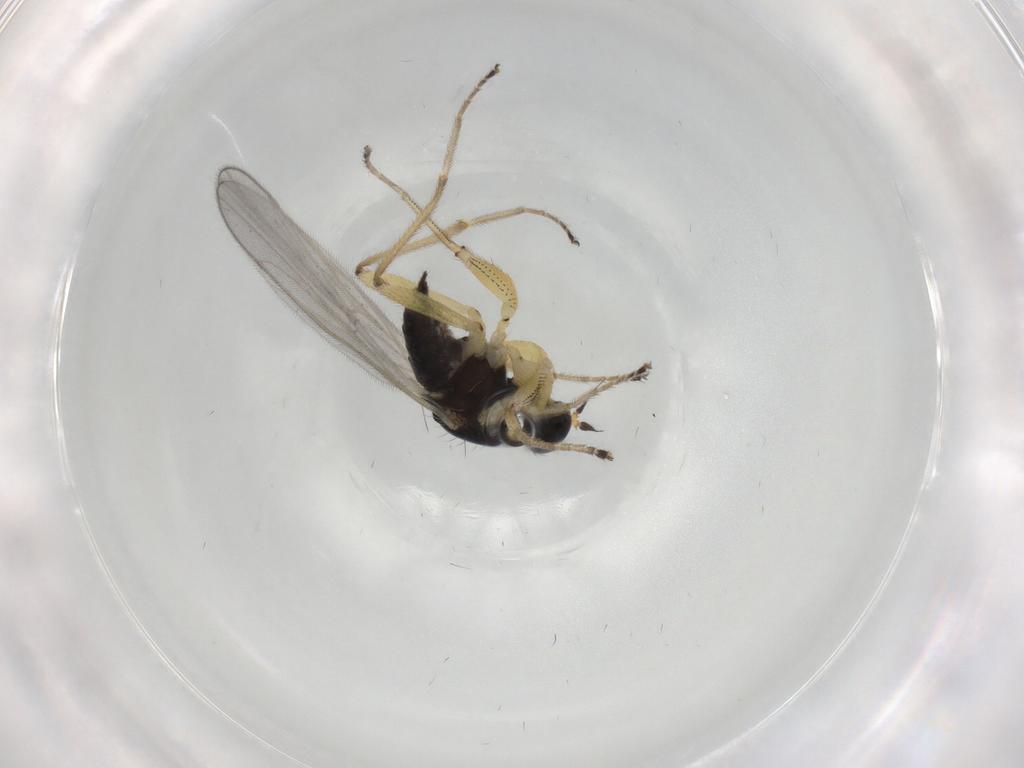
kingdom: Animalia
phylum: Arthropoda
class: Insecta
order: Diptera
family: Hybotidae
